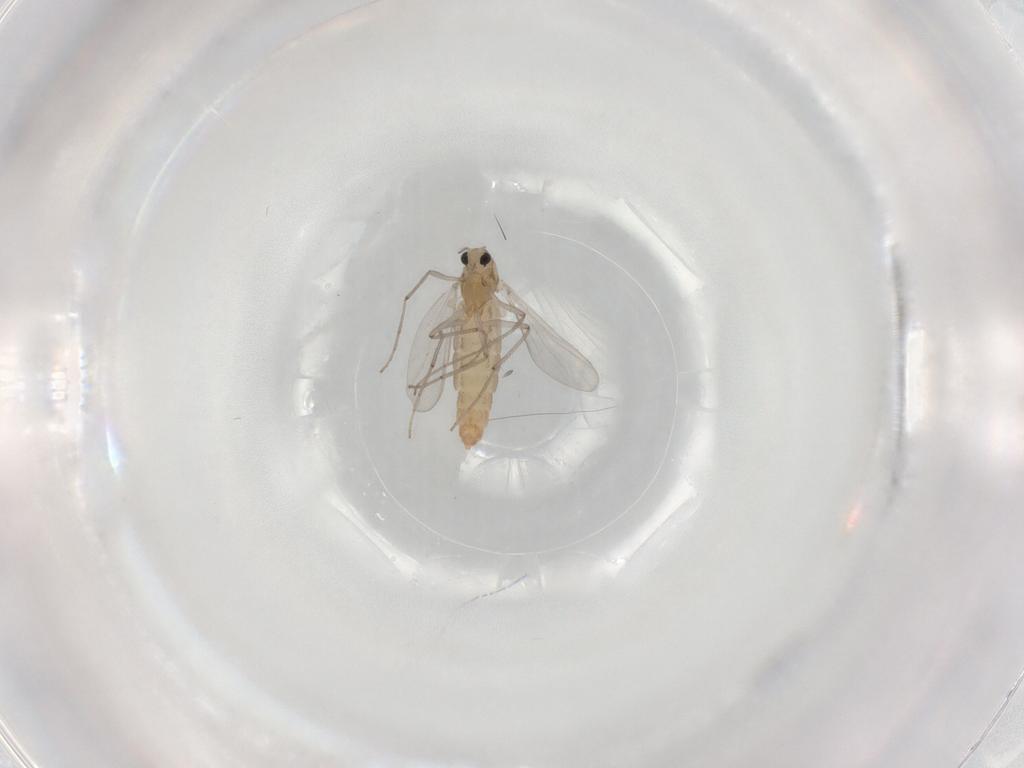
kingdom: Animalia
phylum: Arthropoda
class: Insecta
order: Diptera
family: Chironomidae
